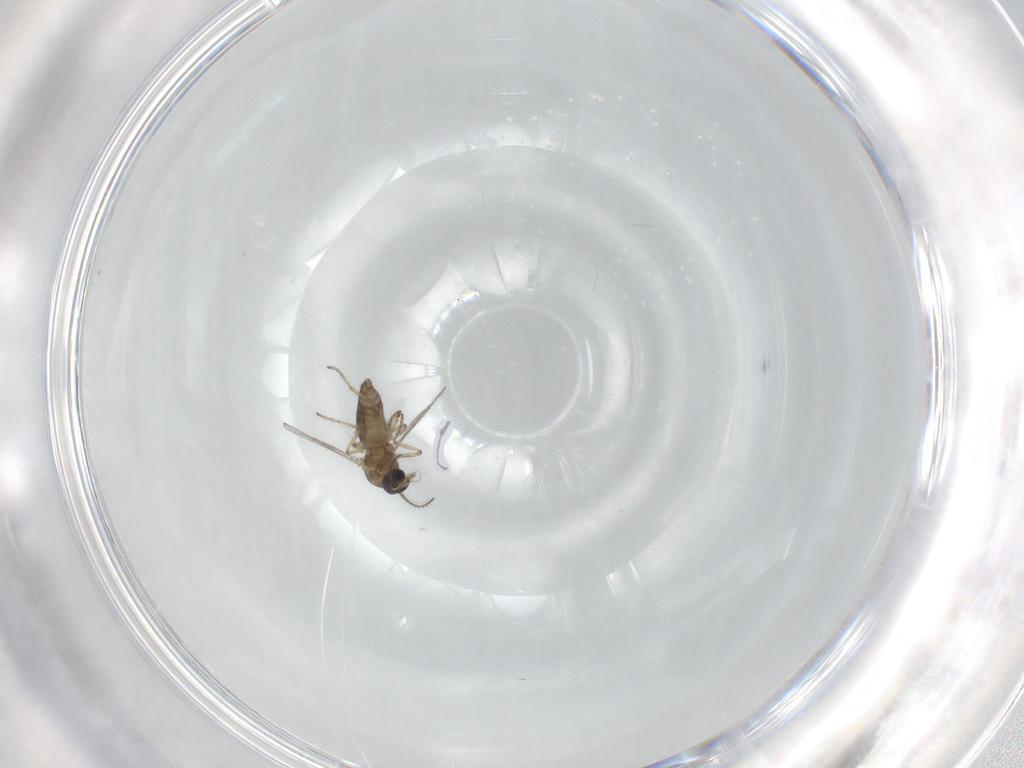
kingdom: Animalia
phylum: Arthropoda
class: Insecta
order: Diptera
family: Ceratopogonidae
